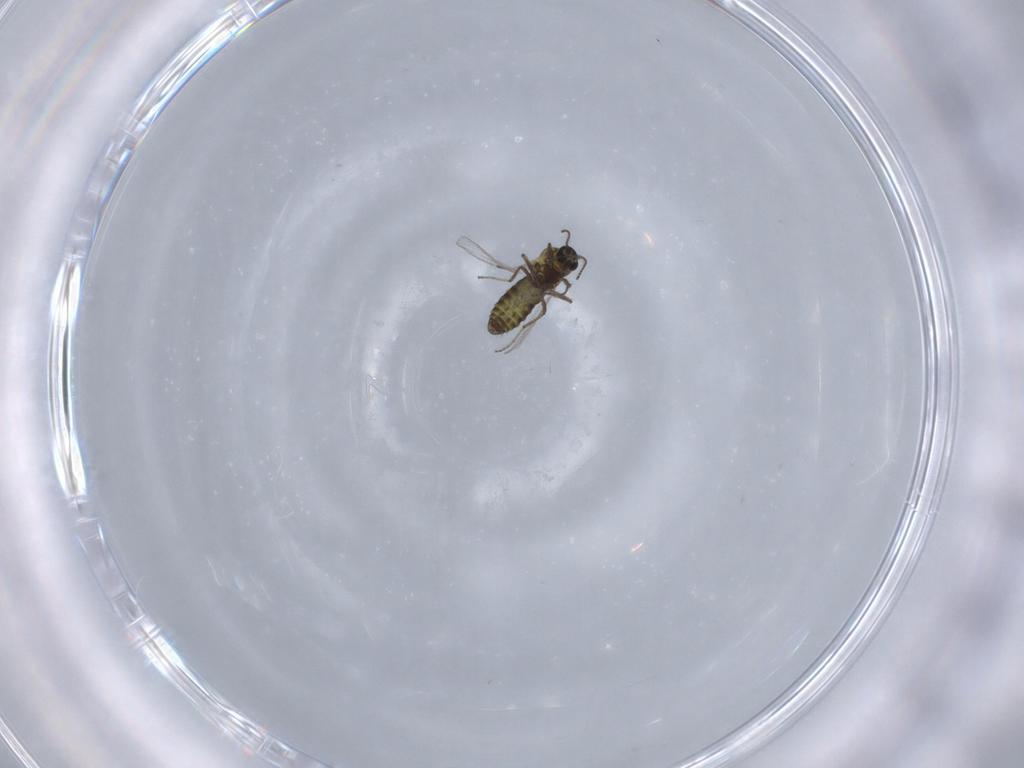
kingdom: Animalia
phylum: Arthropoda
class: Insecta
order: Diptera
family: Ceratopogonidae
